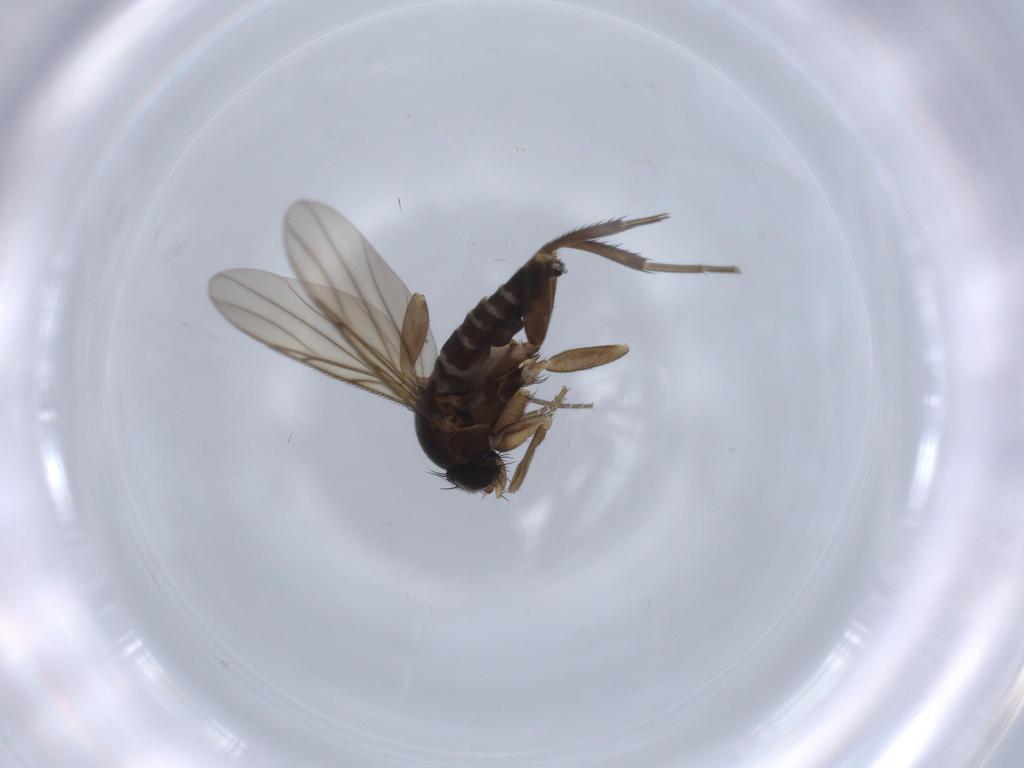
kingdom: Animalia
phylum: Arthropoda
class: Insecta
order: Diptera
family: Phoridae
